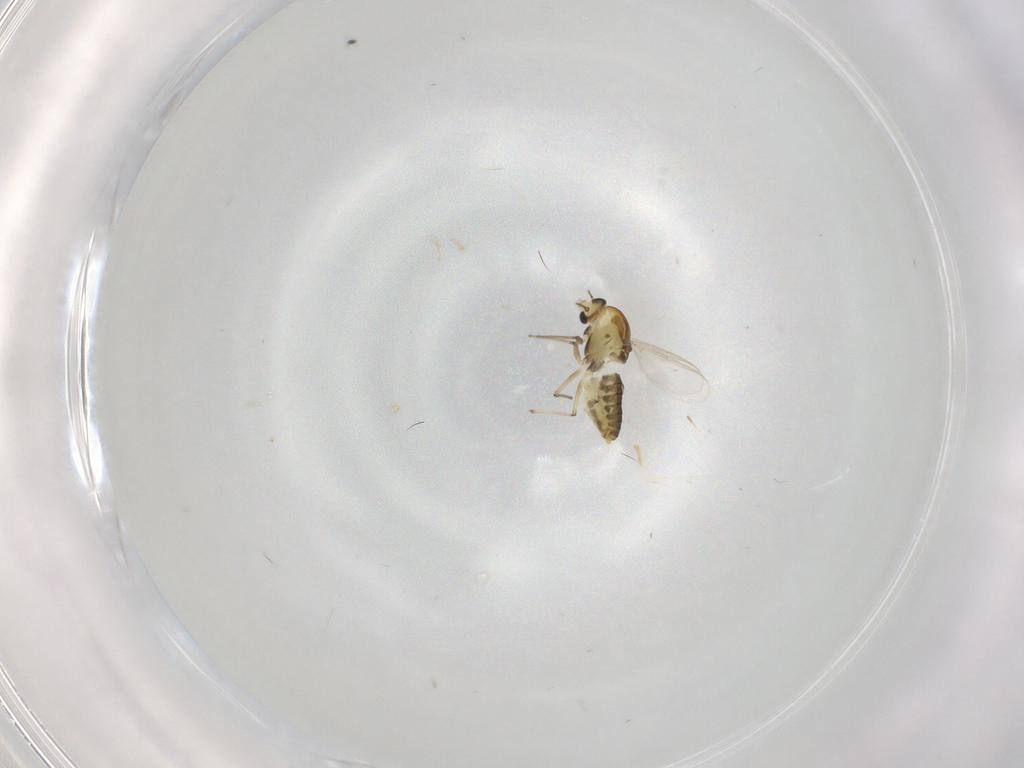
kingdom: Animalia
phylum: Arthropoda
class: Insecta
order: Diptera
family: Chironomidae
